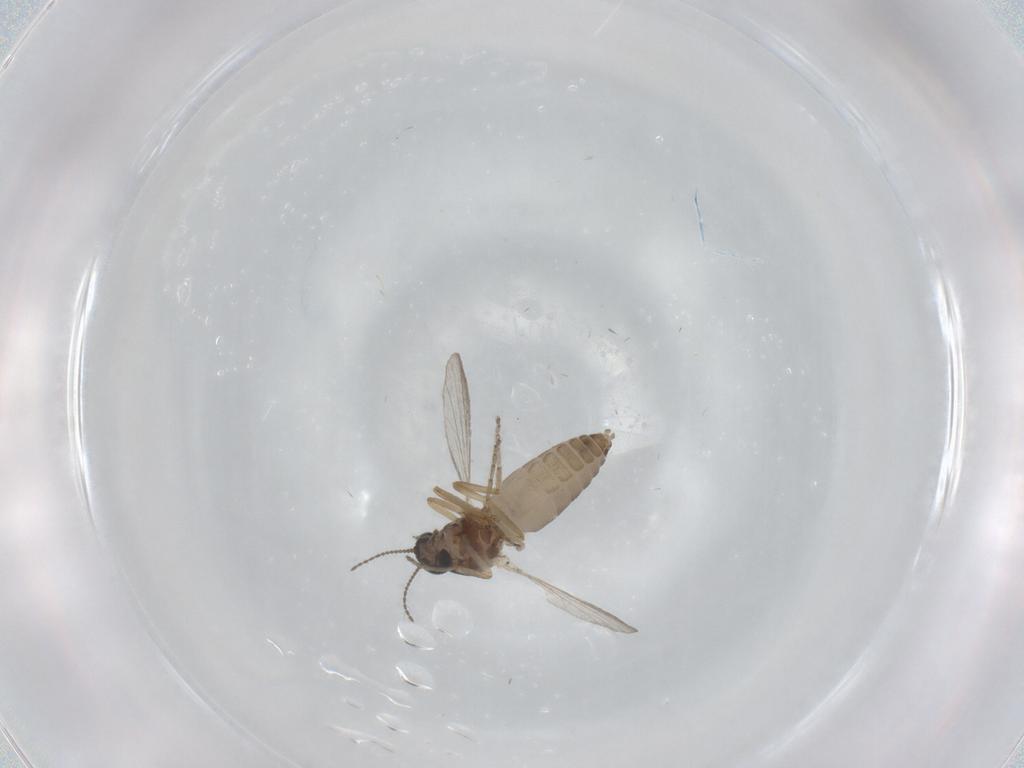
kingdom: Animalia
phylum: Arthropoda
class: Insecta
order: Diptera
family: Ceratopogonidae
